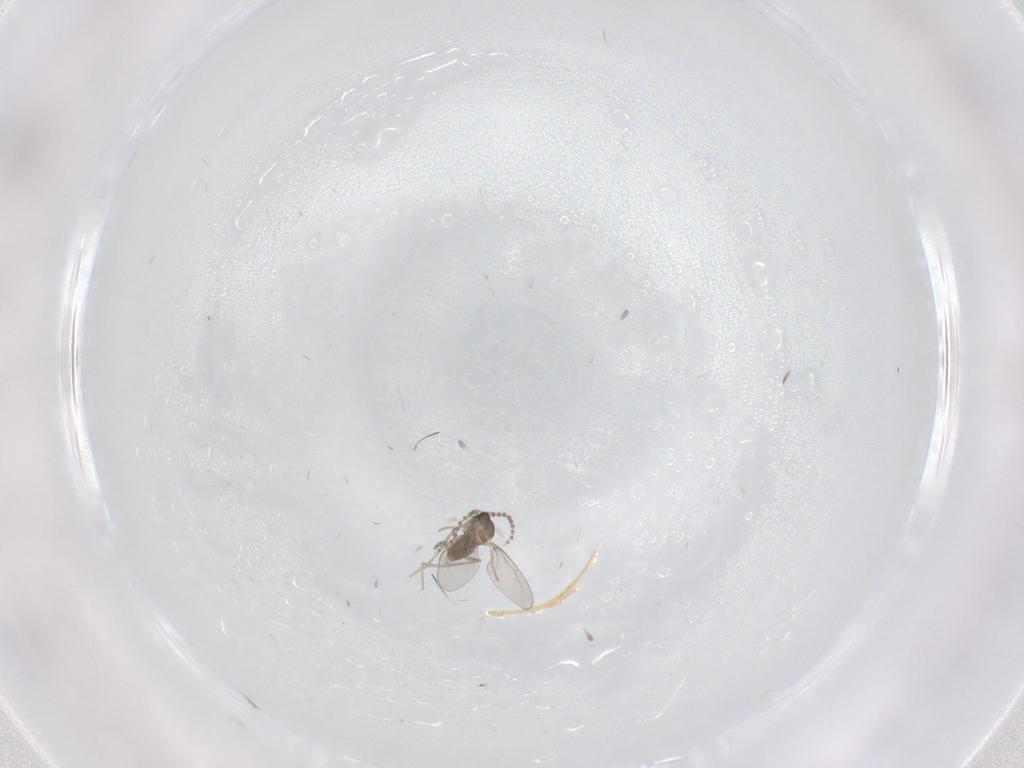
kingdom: Animalia
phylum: Arthropoda
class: Insecta
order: Diptera
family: Cecidomyiidae
